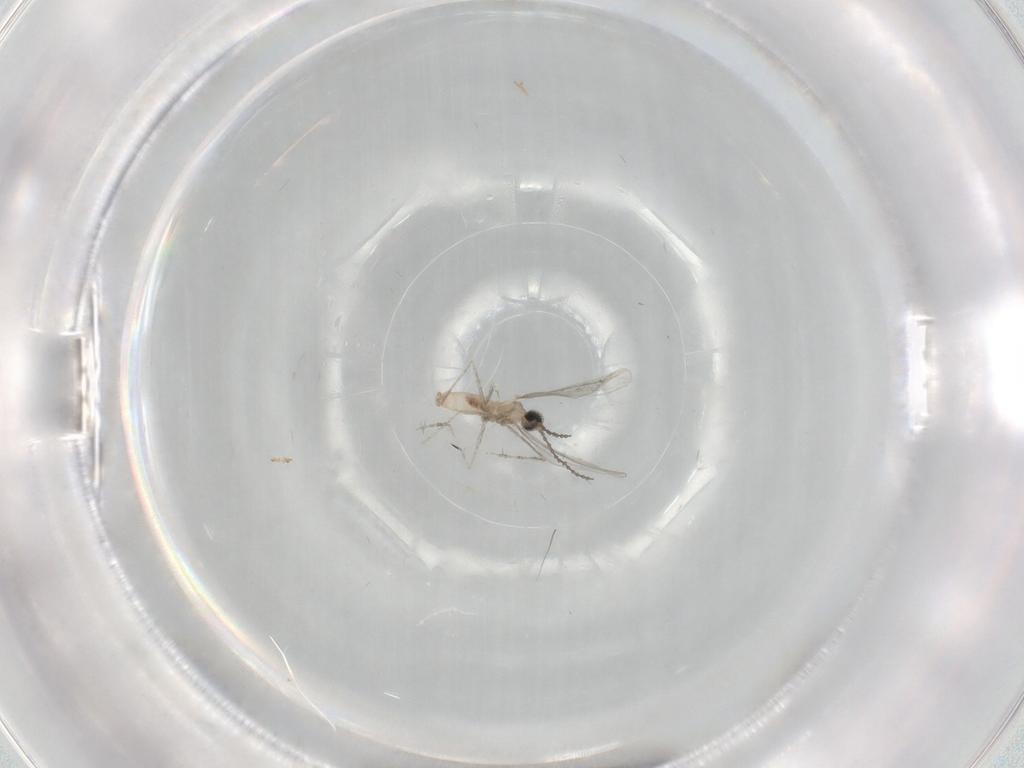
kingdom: Animalia
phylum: Arthropoda
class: Insecta
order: Diptera
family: Cecidomyiidae
